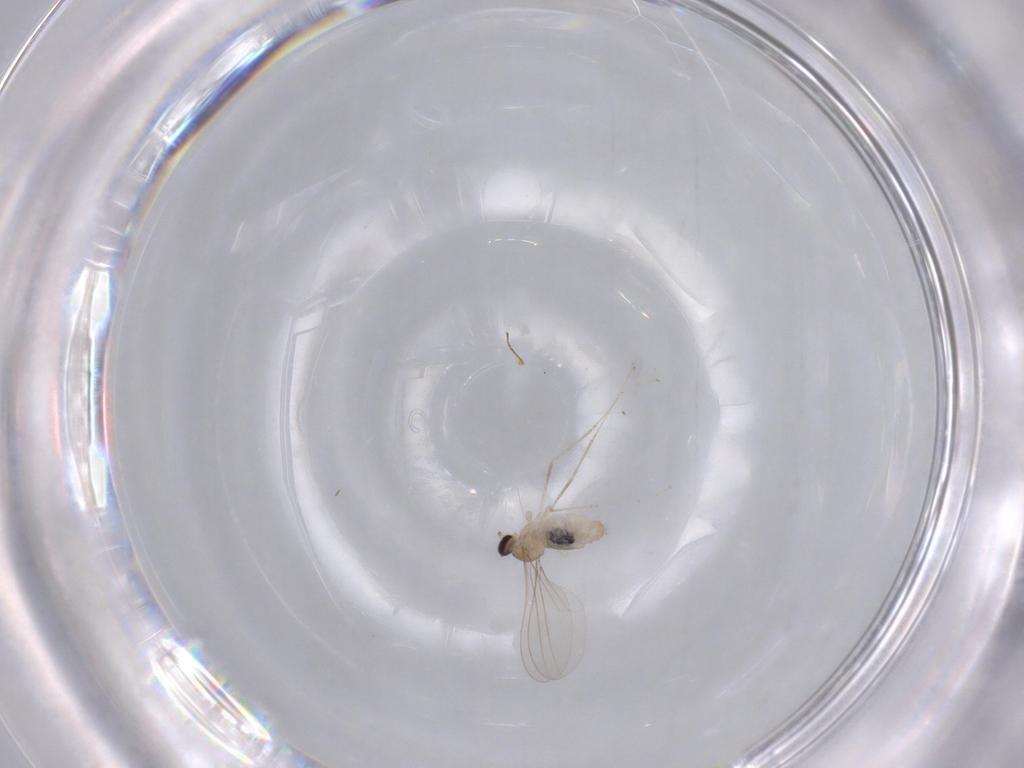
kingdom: Animalia
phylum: Arthropoda
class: Insecta
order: Diptera
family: Cecidomyiidae
